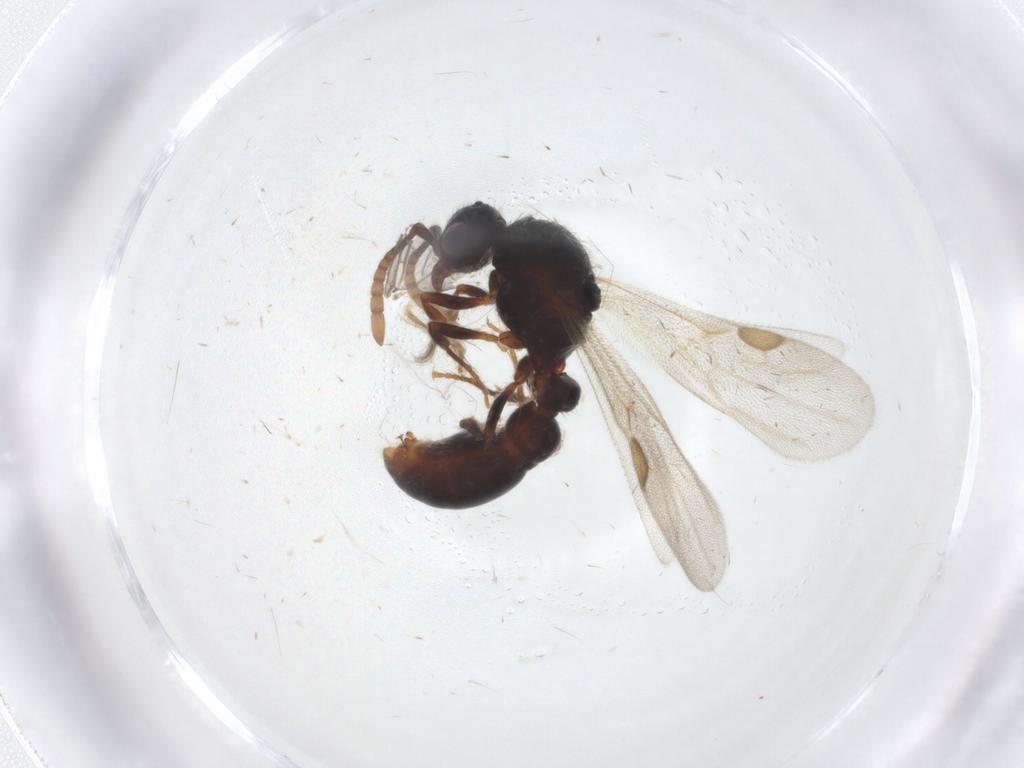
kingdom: Animalia
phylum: Arthropoda
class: Insecta
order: Hymenoptera
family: Formicidae
